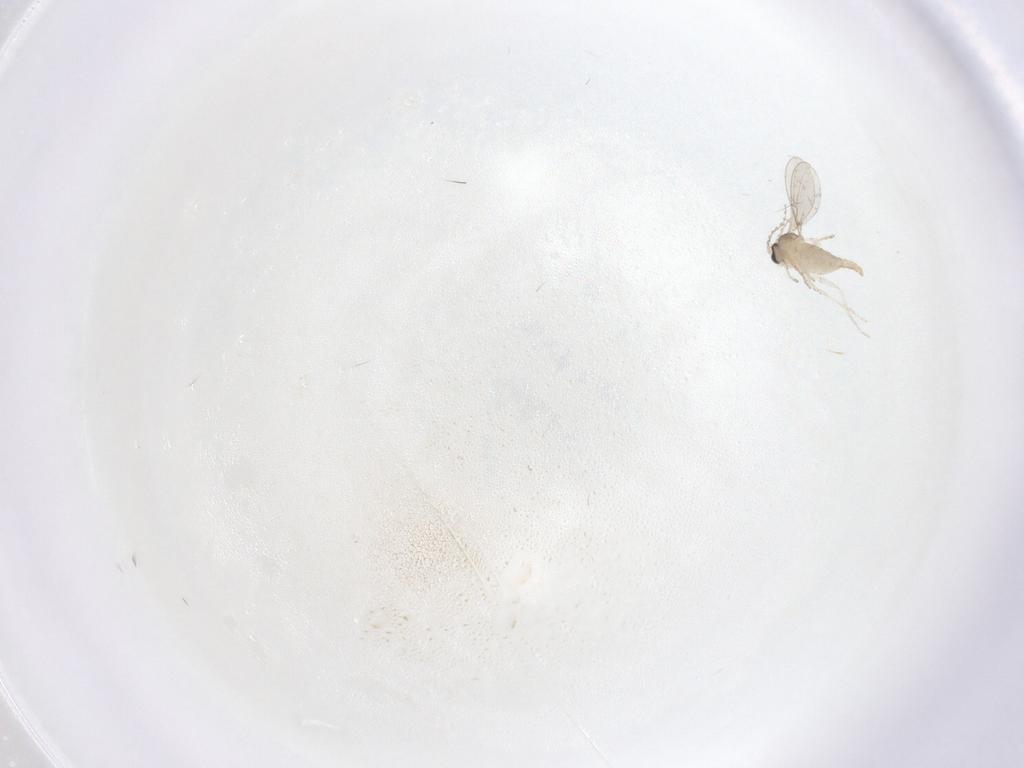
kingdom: Animalia
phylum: Arthropoda
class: Insecta
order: Diptera
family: Cecidomyiidae
